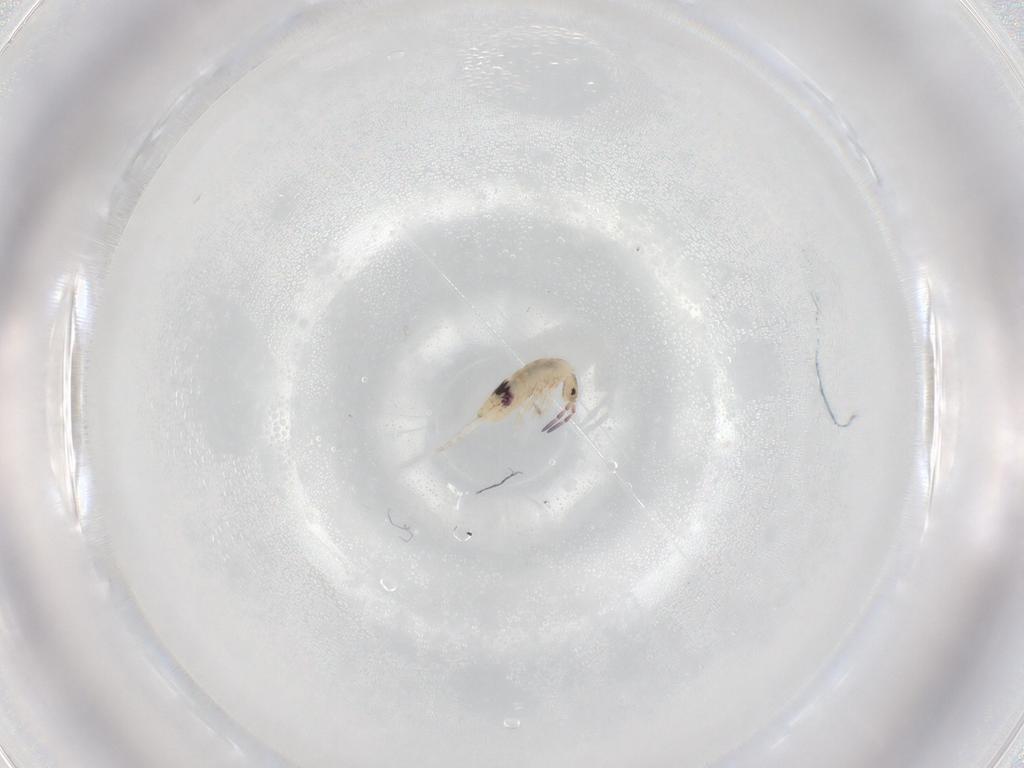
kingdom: Animalia
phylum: Arthropoda
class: Collembola
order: Entomobryomorpha
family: Entomobryidae
